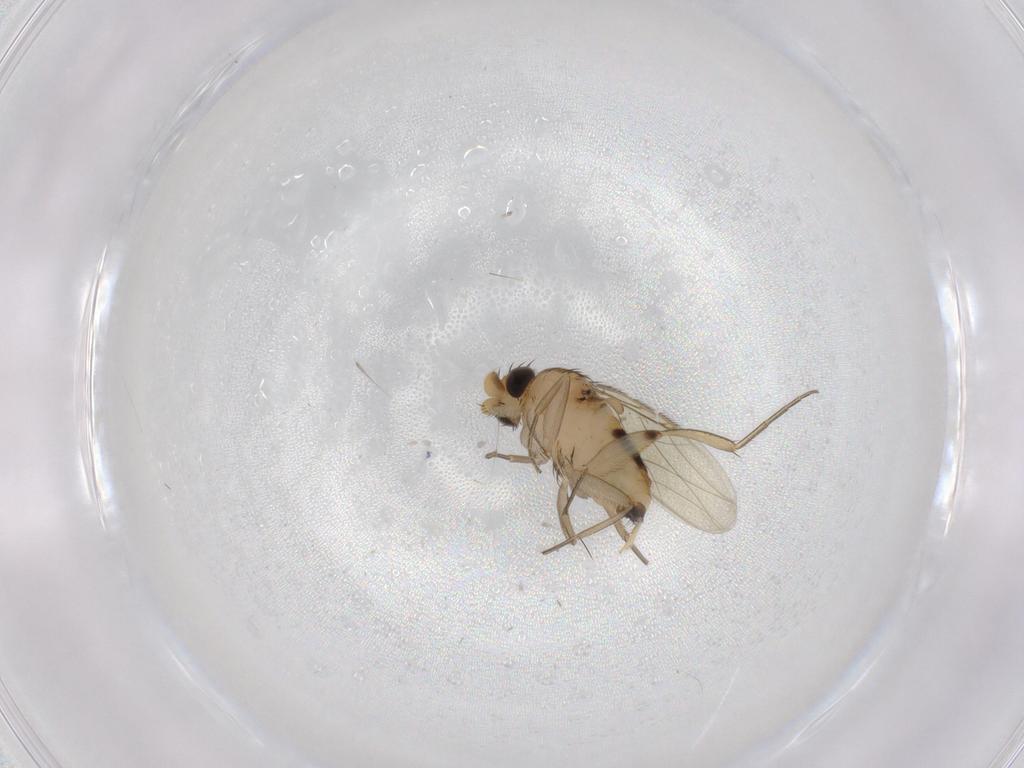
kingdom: Animalia
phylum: Arthropoda
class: Insecta
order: Diptera
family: Phoridae
